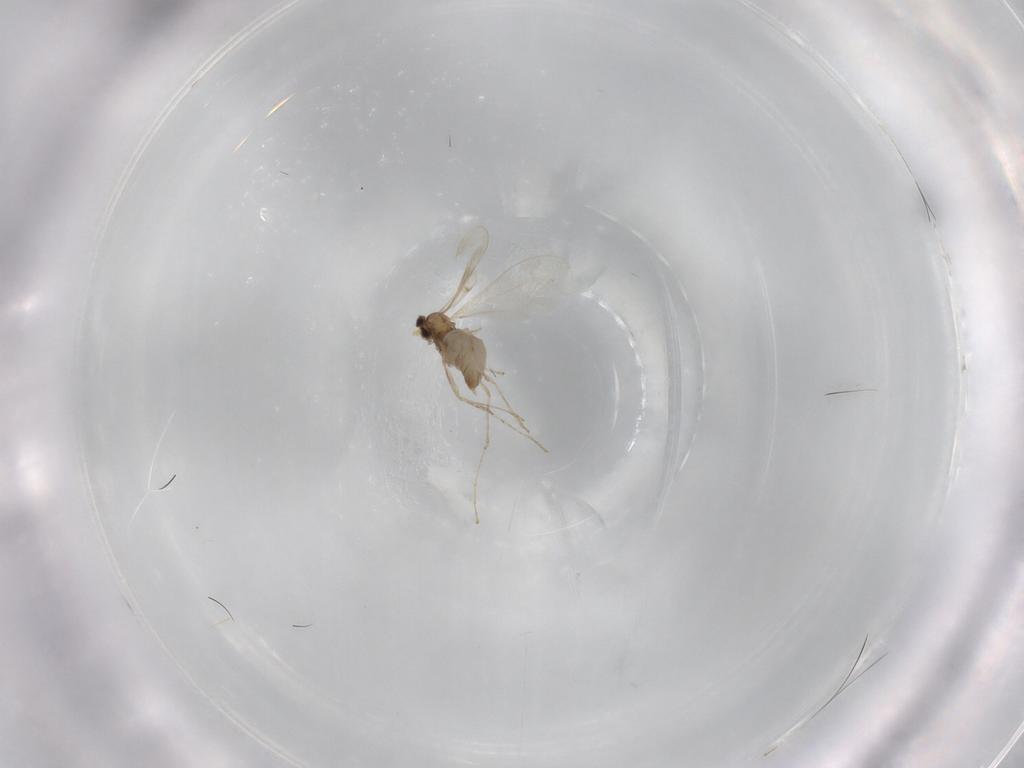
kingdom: Animalia
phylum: Arthropoda
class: Insecta
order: Diptera
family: Cecidomyiidae
